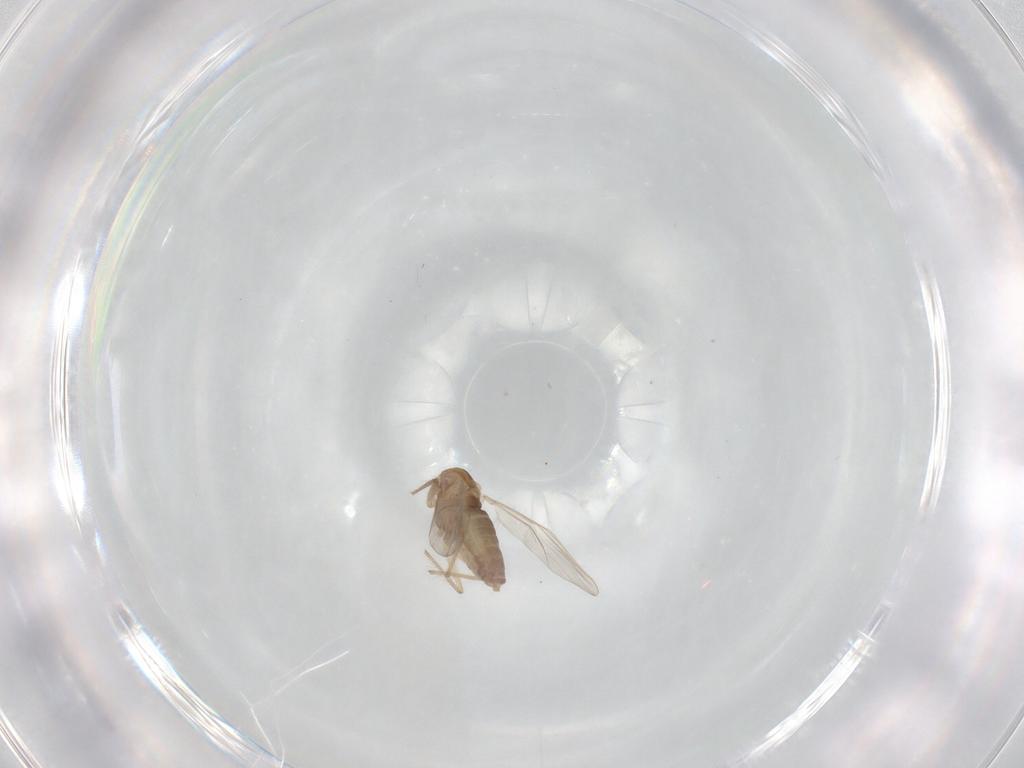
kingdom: Animalia
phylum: Arthropoda
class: Insecta
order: Diptera
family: Chironomidae
